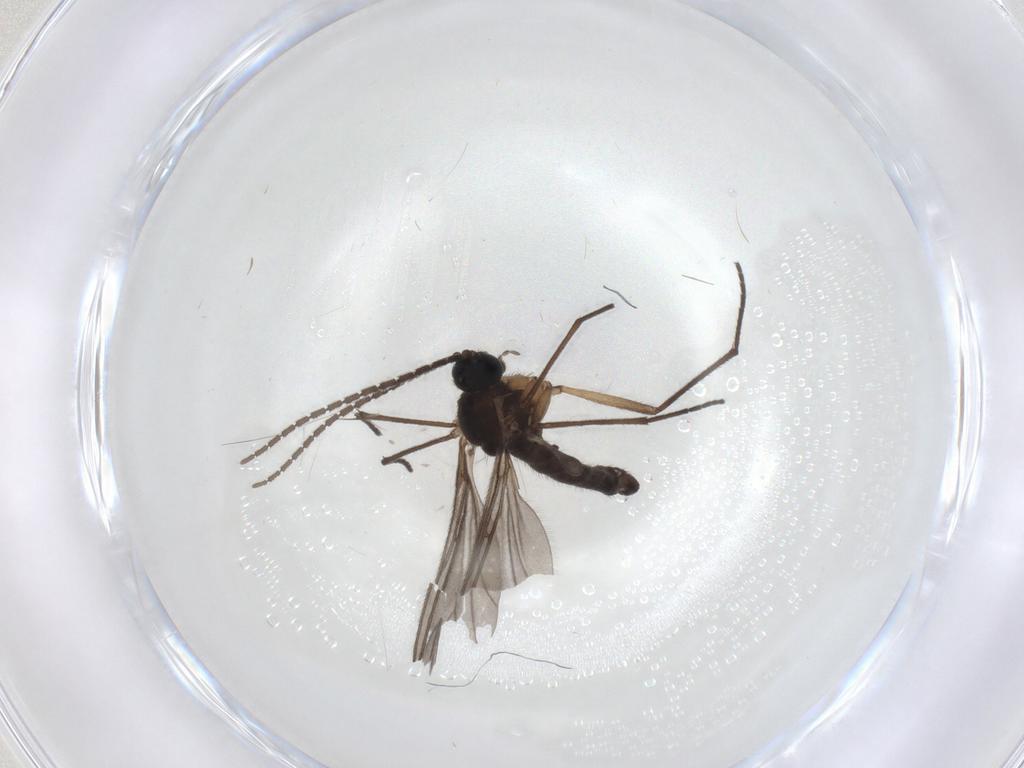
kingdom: Animalia
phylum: Arthropoda
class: Insecta
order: Diptera
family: Sciaridae
